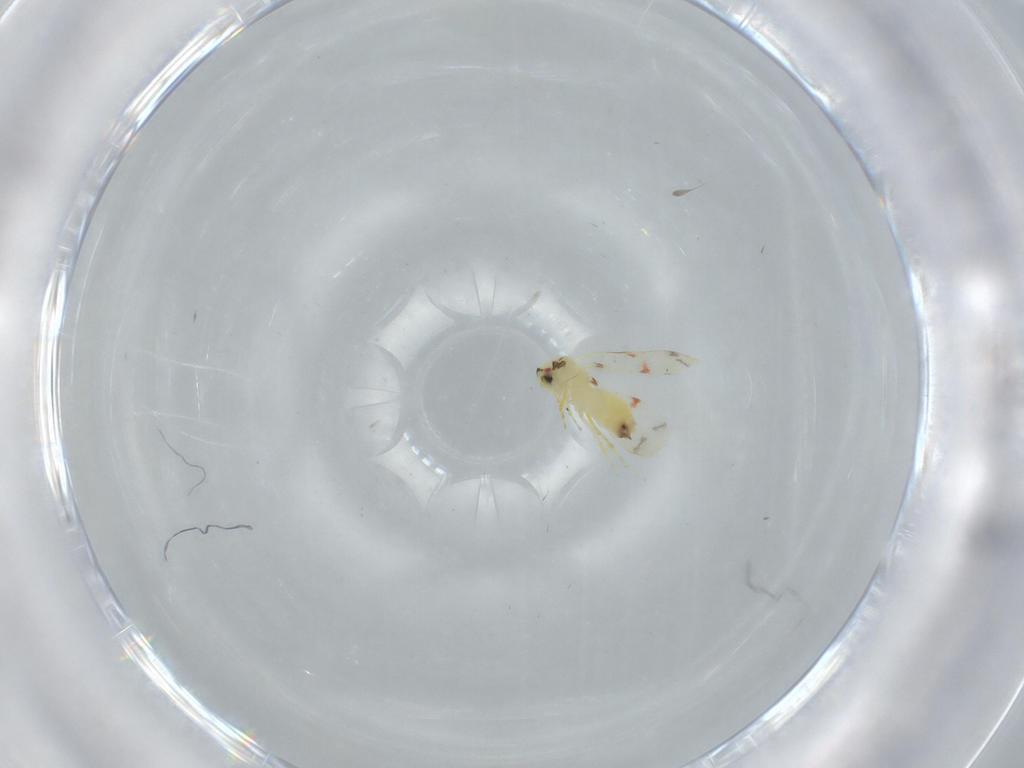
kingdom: Animalia
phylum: Arthropoda
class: Insecta
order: Hemiptera
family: Aleyrodidae
